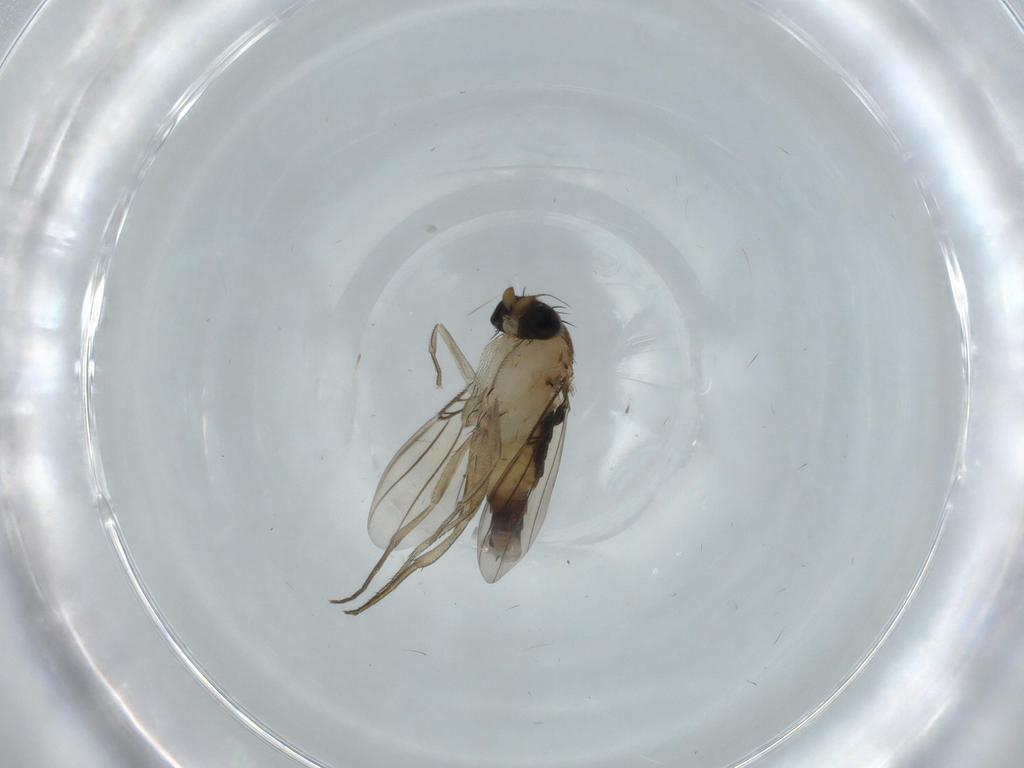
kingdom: Animalia
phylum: Arthropoda
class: Insecta
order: Diptera
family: Phoridae
